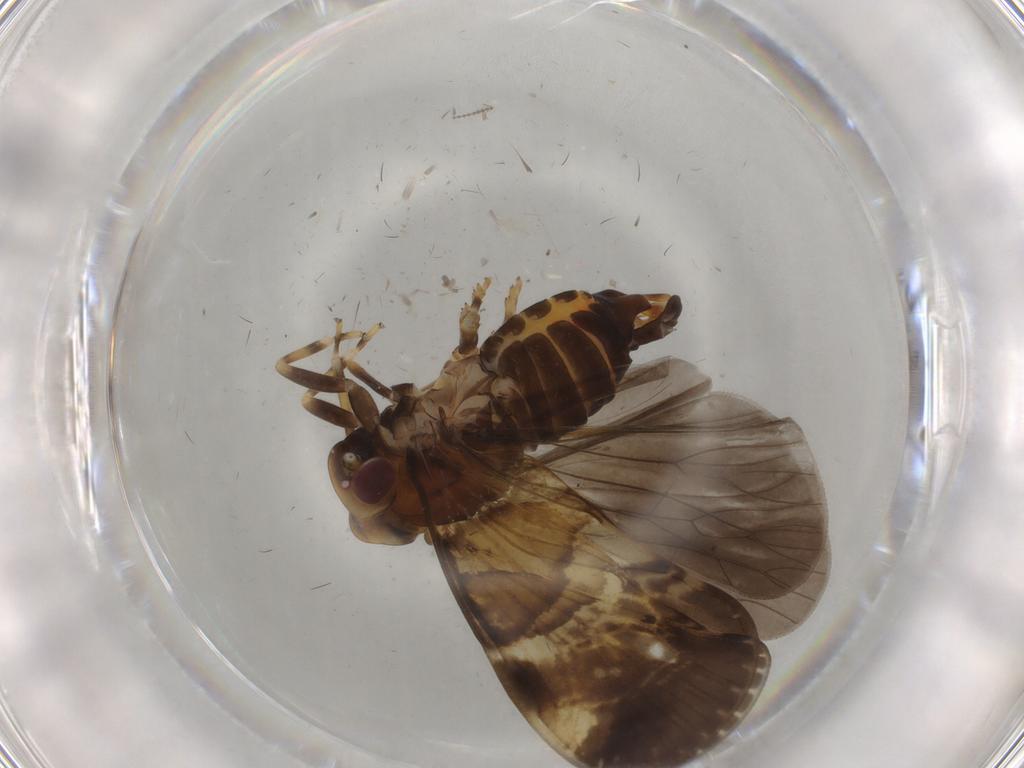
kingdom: Animalia
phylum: Arthropoda
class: Insecta
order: Hemiptera
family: Cixiidae
